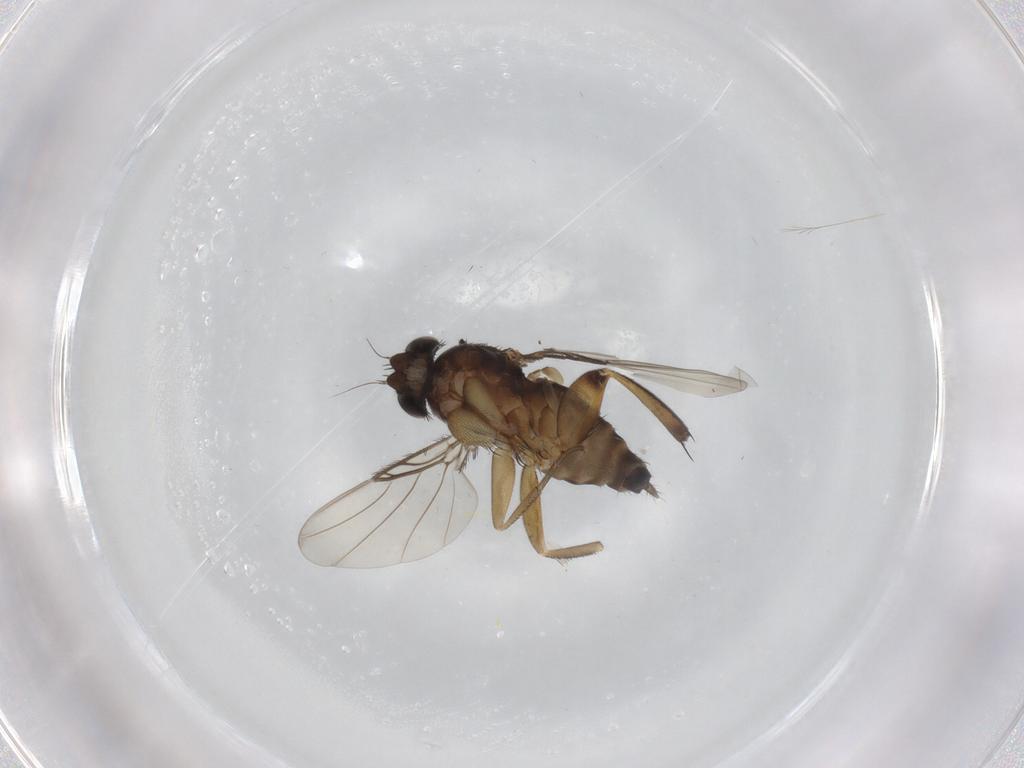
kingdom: Animalia
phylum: Arthropoda
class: Insecta
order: Diptera
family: Phoridae
